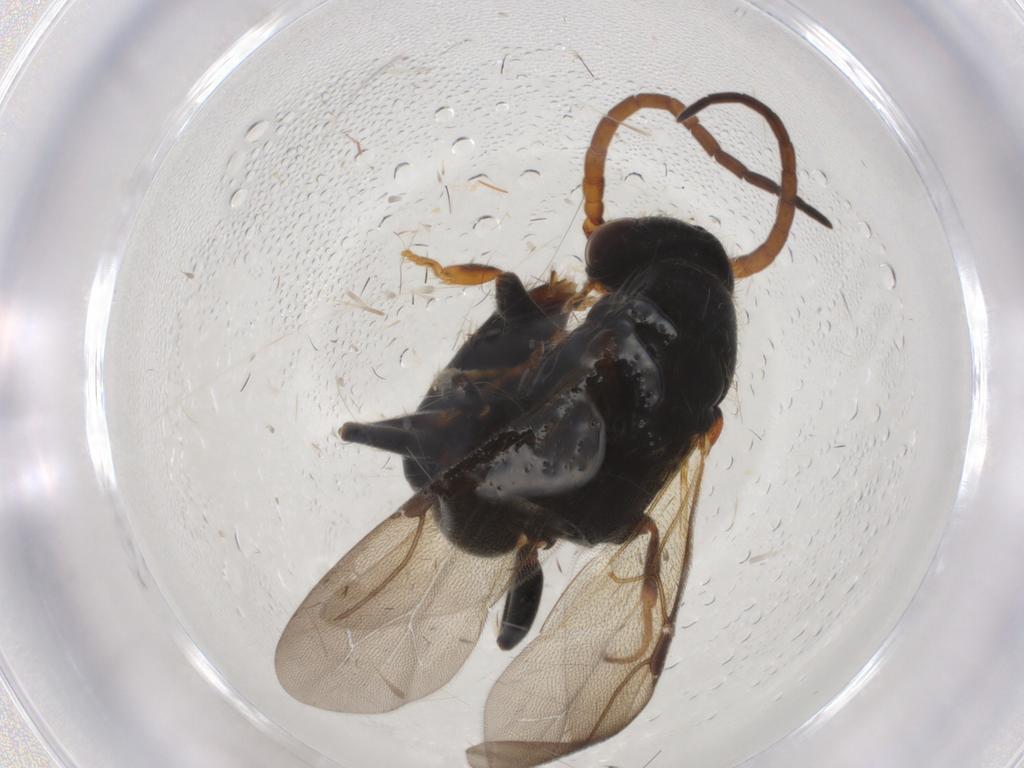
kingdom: Animalia
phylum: Arthropoda
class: Insecta
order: Hymenoptera
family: Bethylidae
